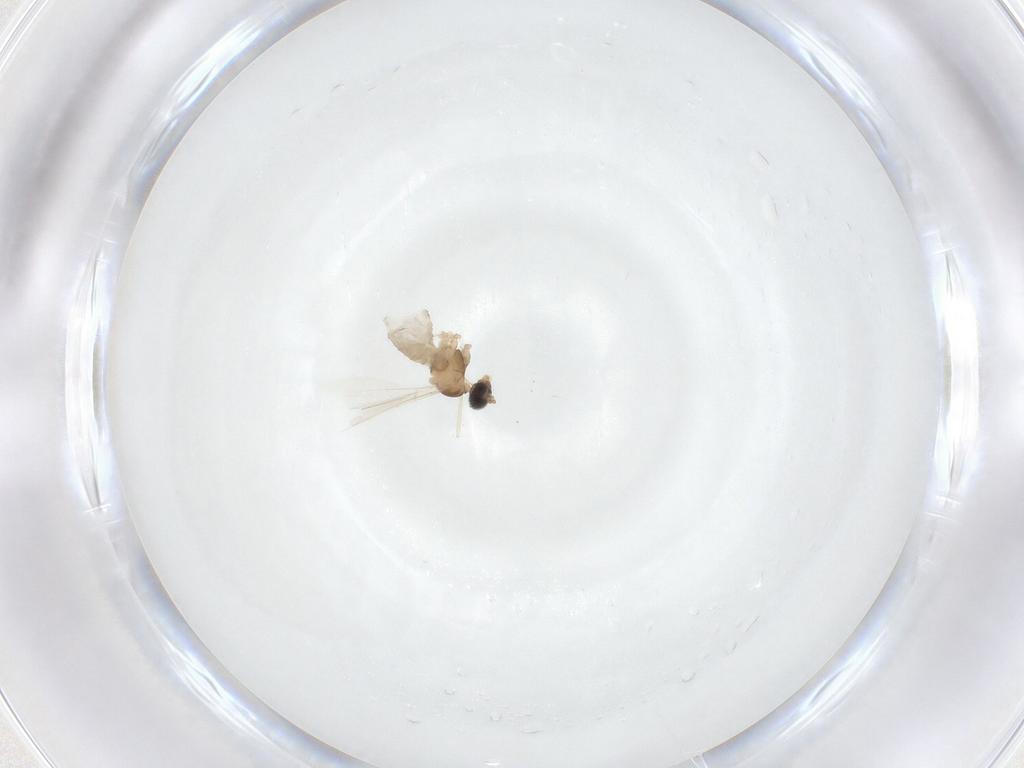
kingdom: Animalia
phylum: Arthropoda
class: Insecta
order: Diptera
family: Cecidomyiidae
